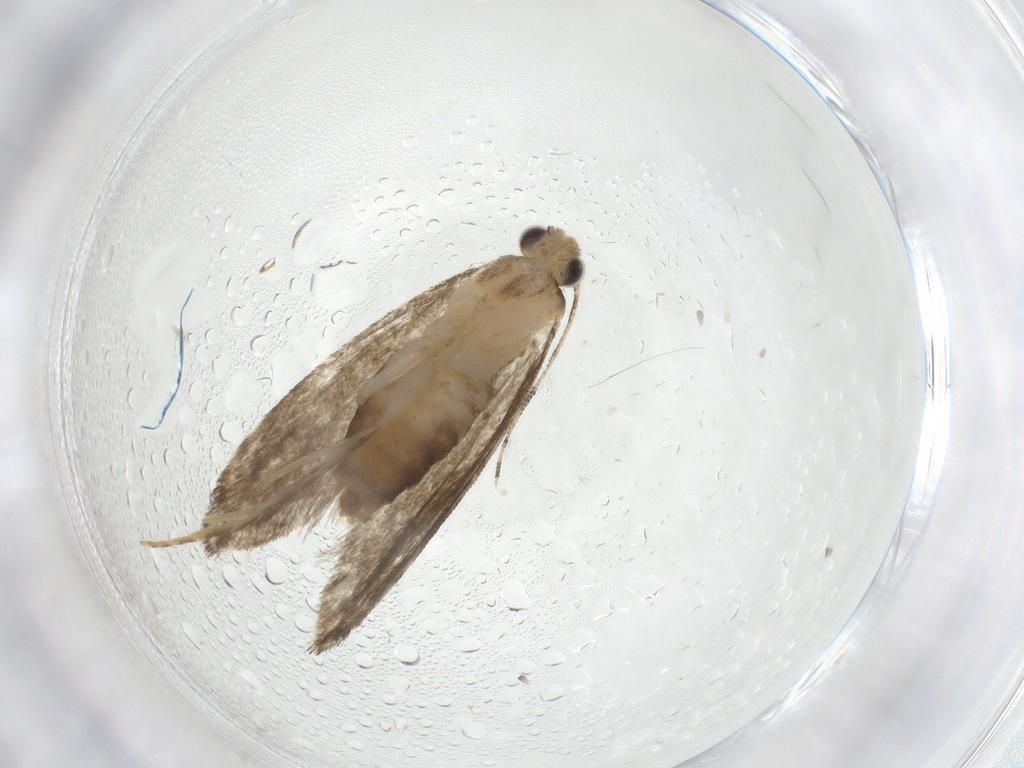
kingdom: Animalia
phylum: Arthropoda
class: Insecta
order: Lepidoptera
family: Tineidae
